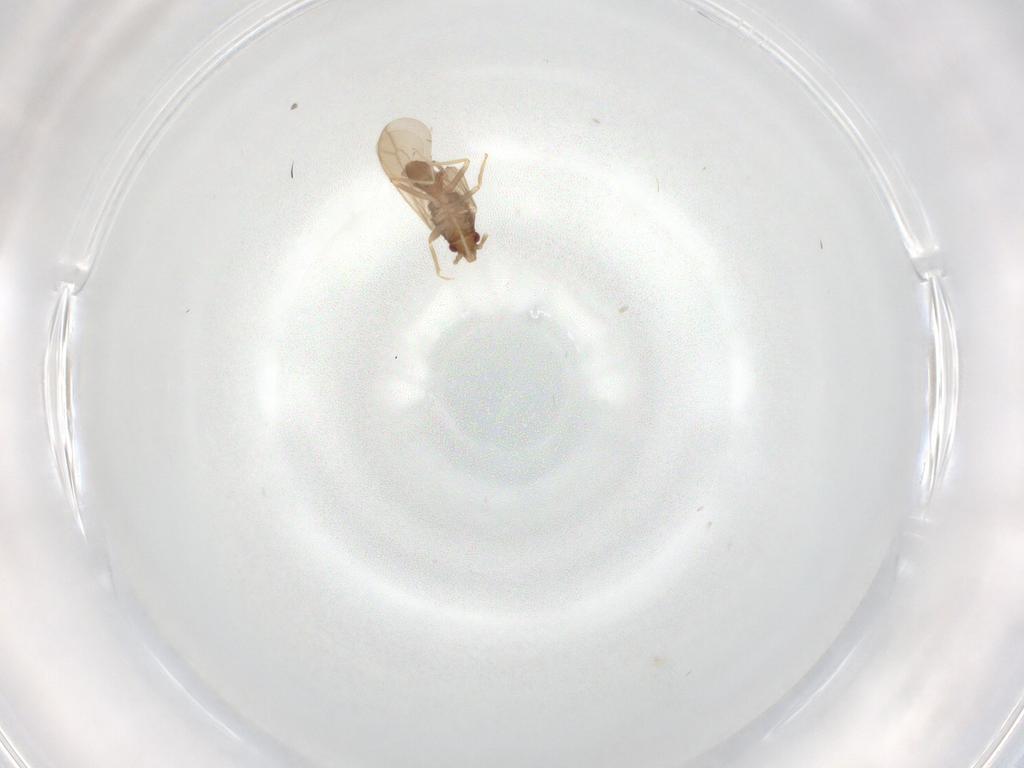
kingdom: Animalia
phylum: Arthropoda
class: Insecta
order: Hemiptera
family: Ceratocombidae
